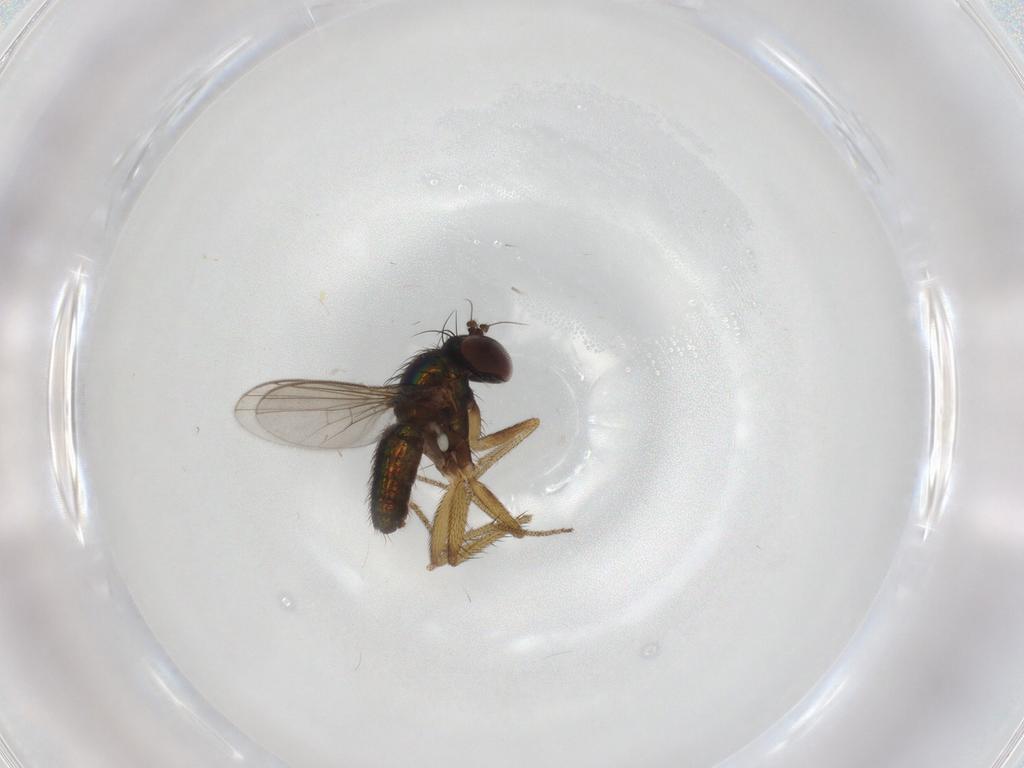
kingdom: Animalia
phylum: Arthropoda
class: Insecta
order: Diptera
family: Dolichopodidae
